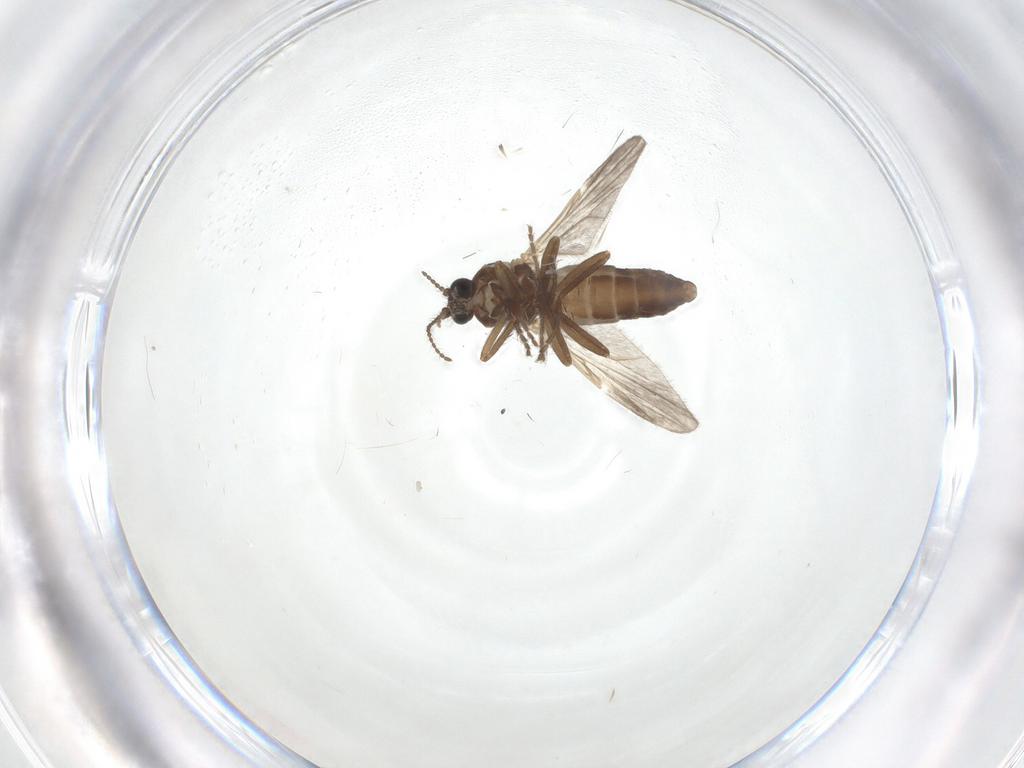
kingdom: Animalia
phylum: Arthropoda
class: Insecta
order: Diptera
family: Ceratopogonidae
